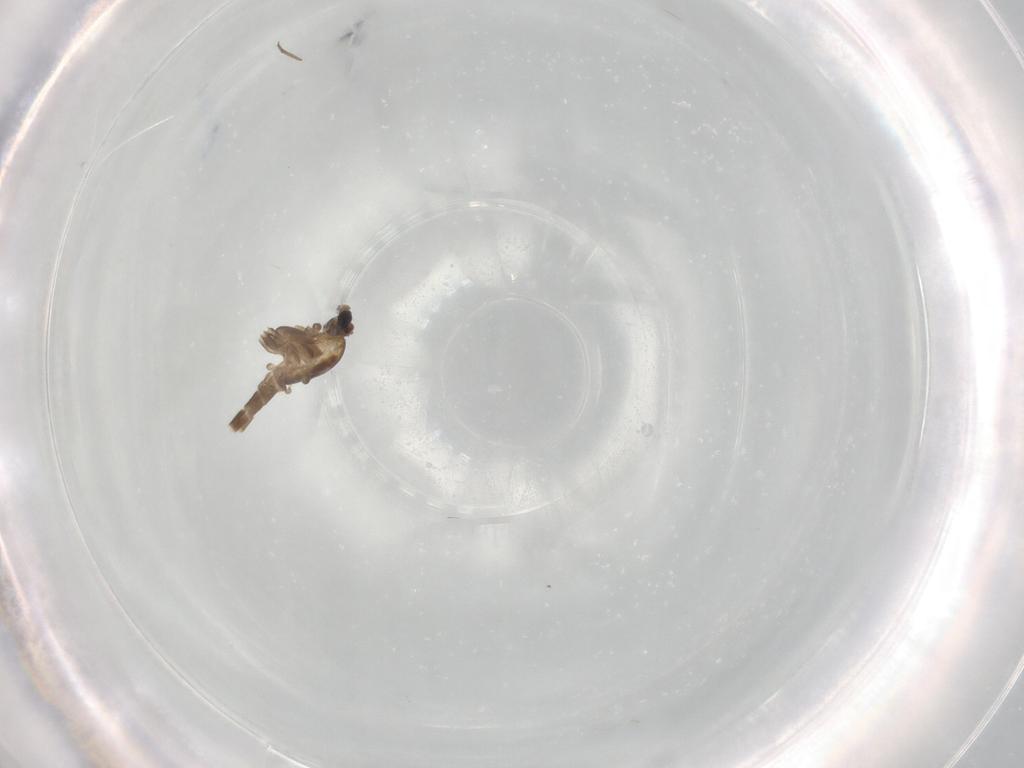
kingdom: Animalia
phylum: Arthropoda
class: Insecta
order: Diptera
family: Chironomidae
